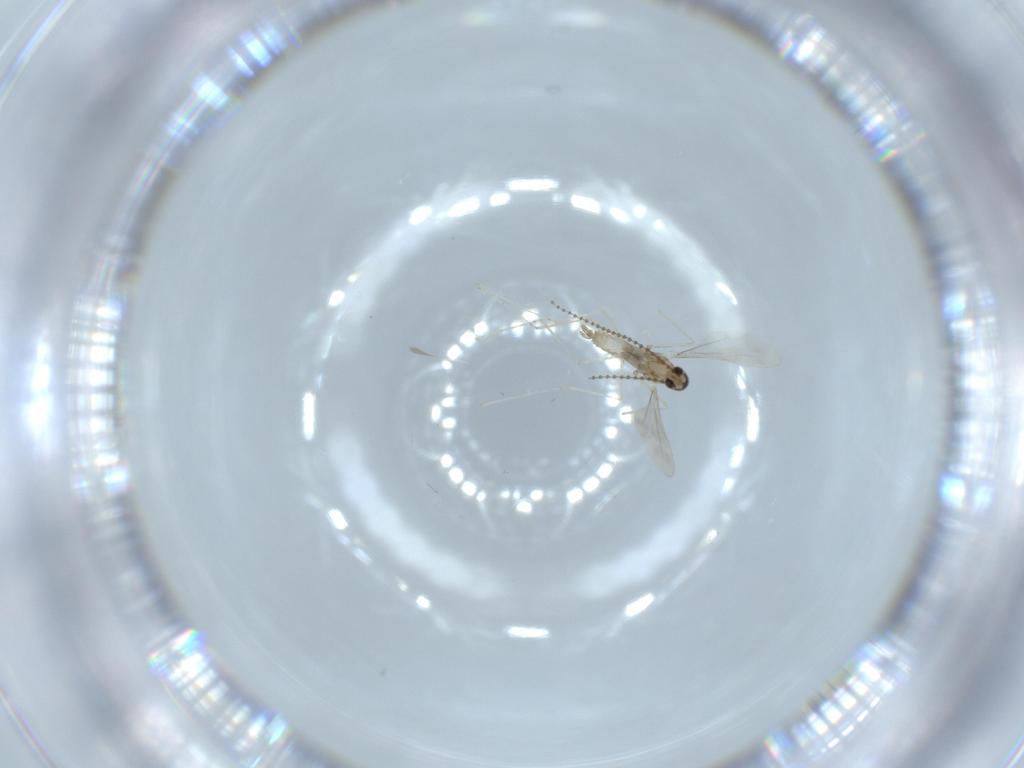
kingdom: Animalia
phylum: Arthropoda
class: Insecta
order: Diptera
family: Cecidomyiidae
